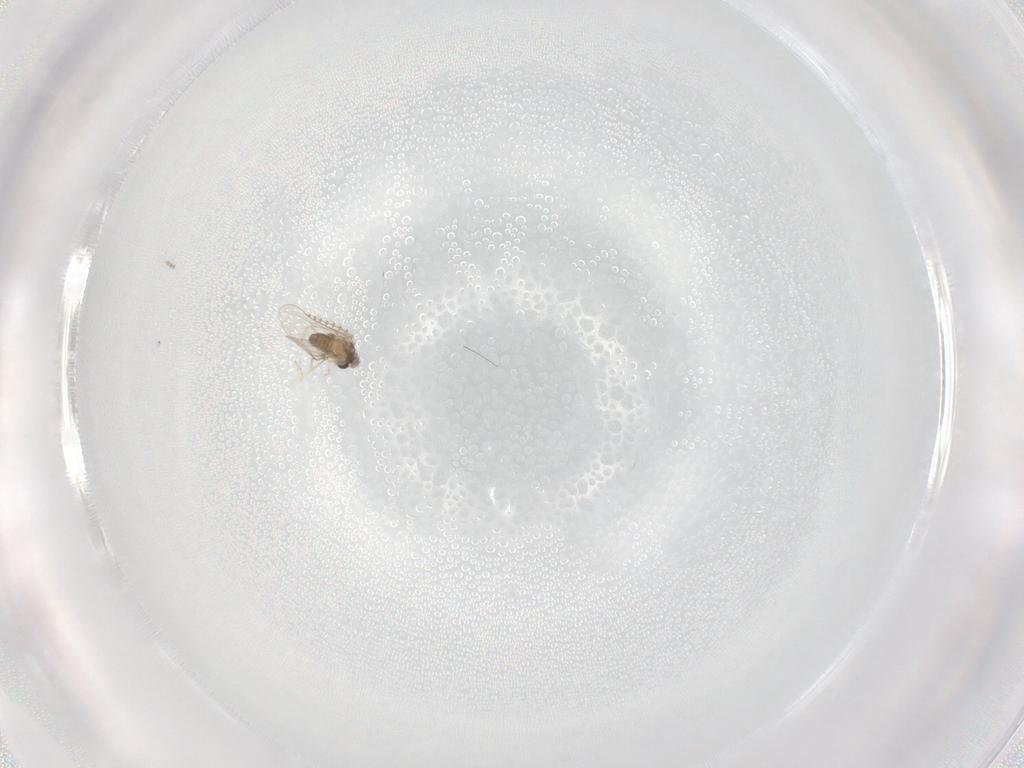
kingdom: Animalia
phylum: Arthropoda
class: Insecta
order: Diptera
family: Cecidomyiidae
